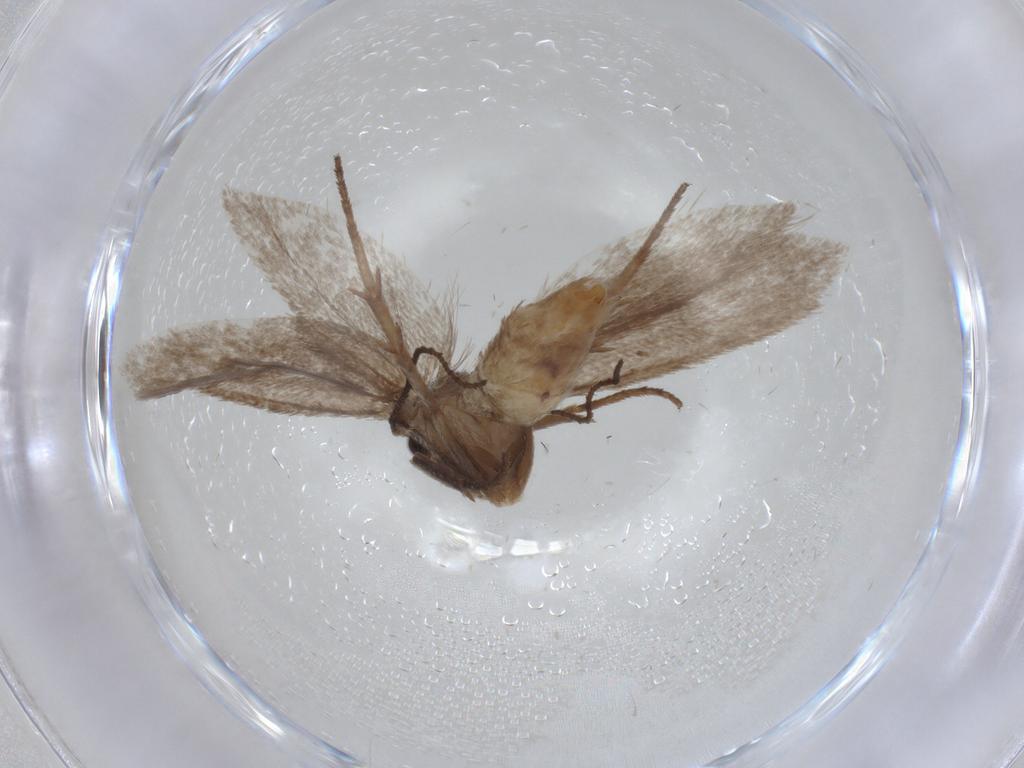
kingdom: Animalia
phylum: Arthropoda
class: Insecta
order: Lepidoptera
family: Limacodidae
